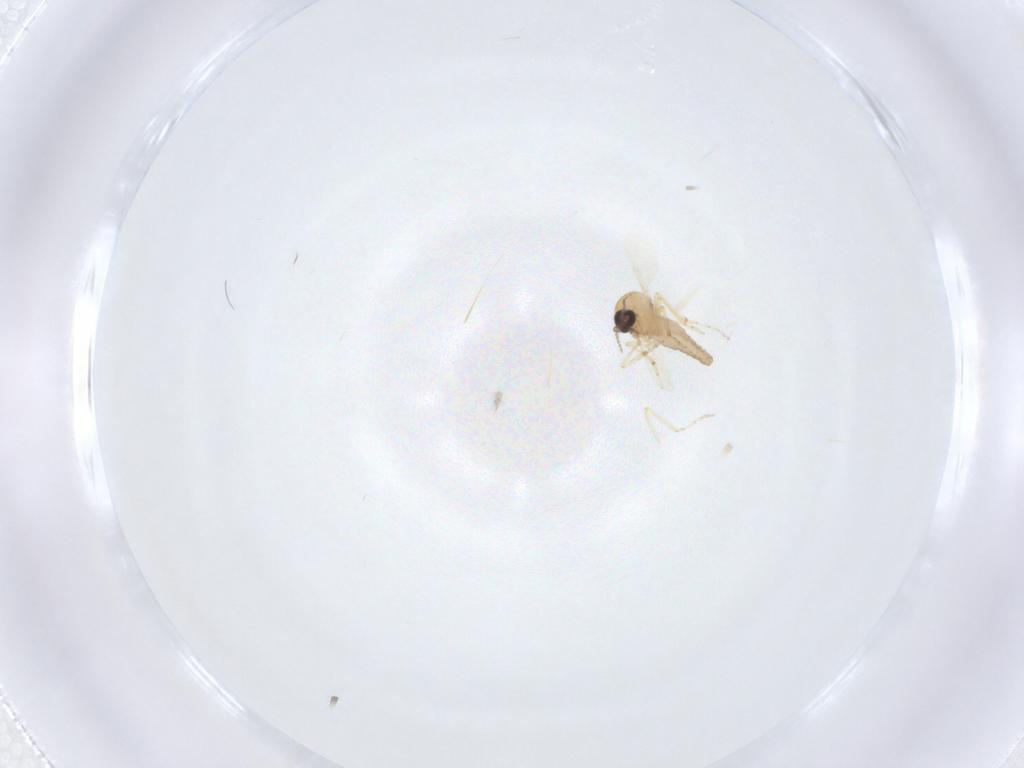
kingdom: Animalia
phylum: Arthropoda
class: Insecta
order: Diptera
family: Ceratopogonidae
